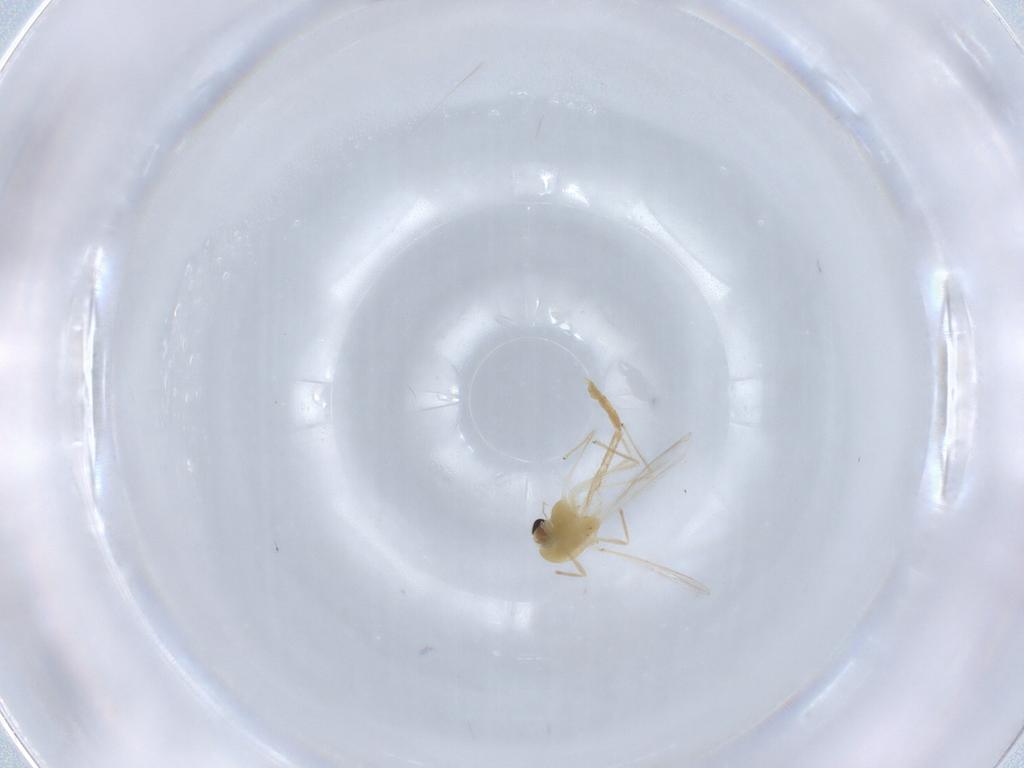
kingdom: Animalia
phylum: Arthropoda
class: Insecta
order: Diptera
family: Chironomidae
